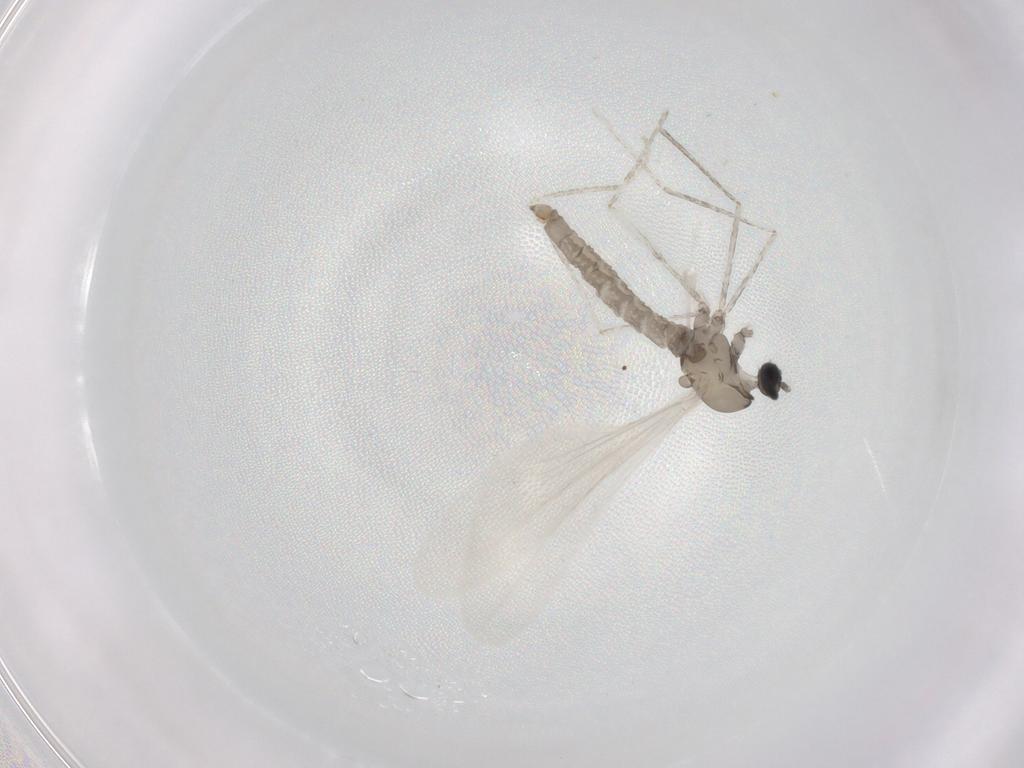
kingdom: Animalia
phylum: Arthropoda
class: Insecta
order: Diptera
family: Cecidomyiidae
